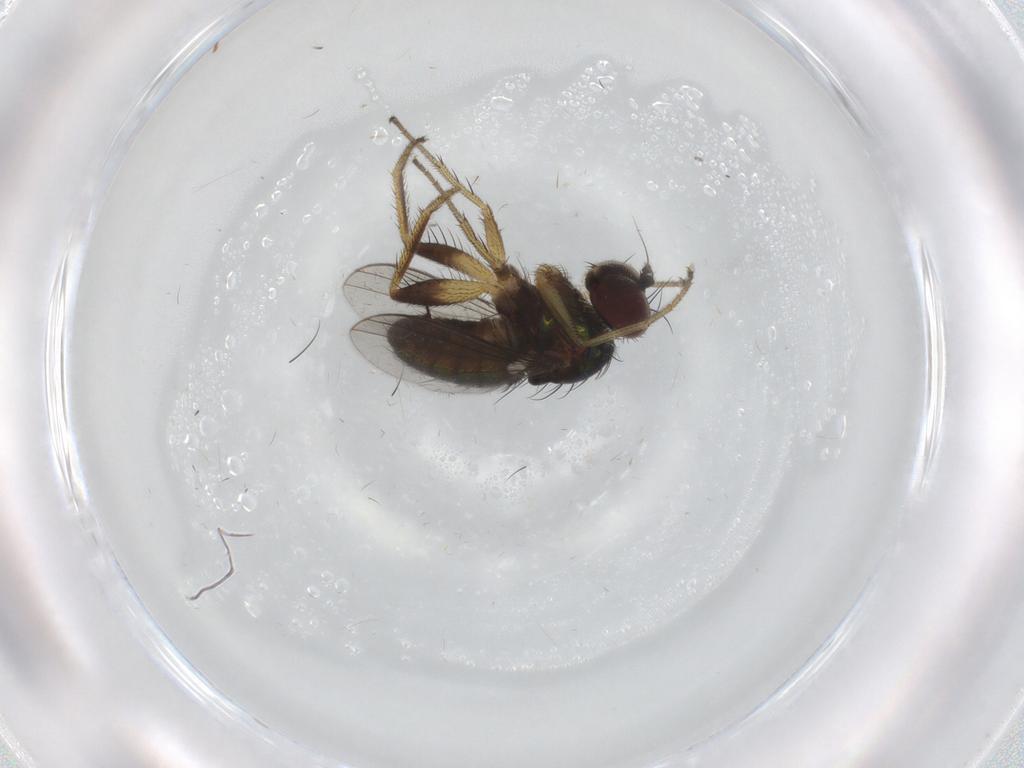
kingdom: Animalia
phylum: Arthropoda
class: Insecta
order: Diptera
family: Dolichopodidae
